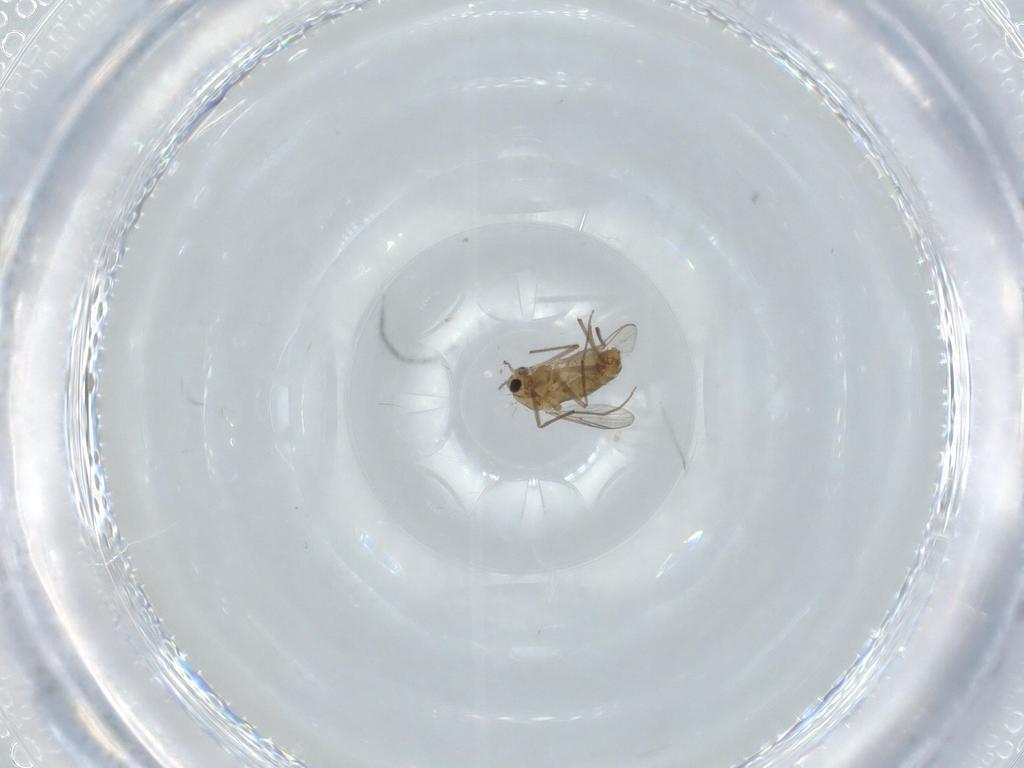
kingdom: Animalia
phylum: Arthropoda
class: Insecta
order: Diptera
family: Chironomidae
